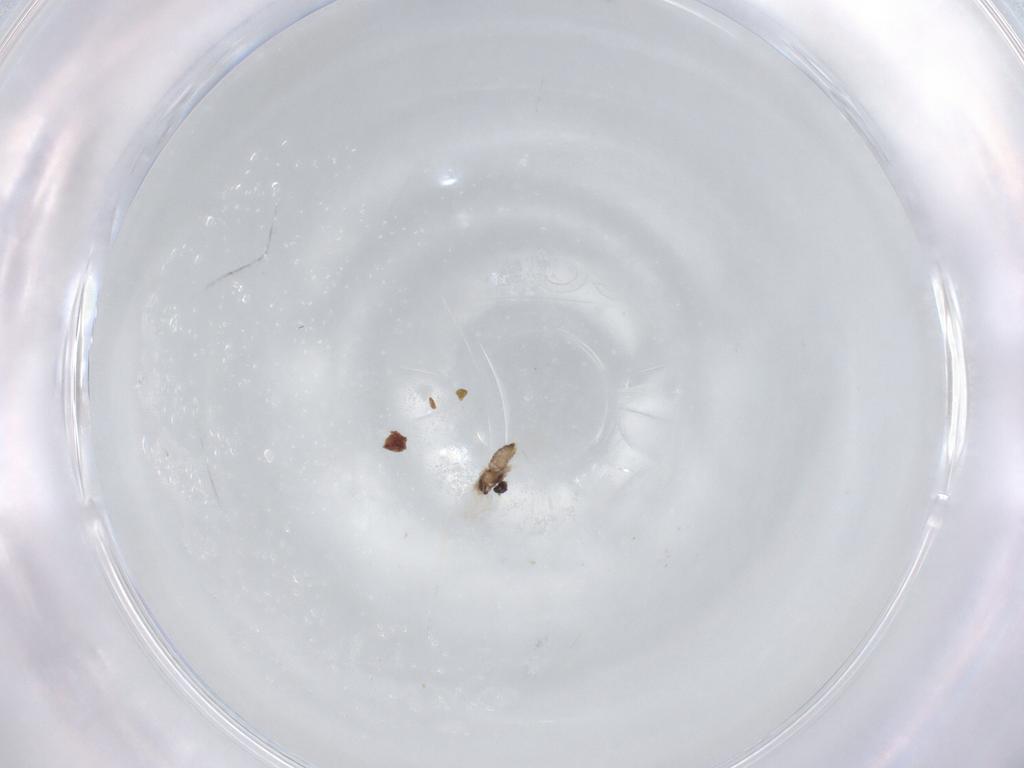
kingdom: Animalia
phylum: Arthropoda
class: Insecta
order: Diptera
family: Cecidomyiidae
